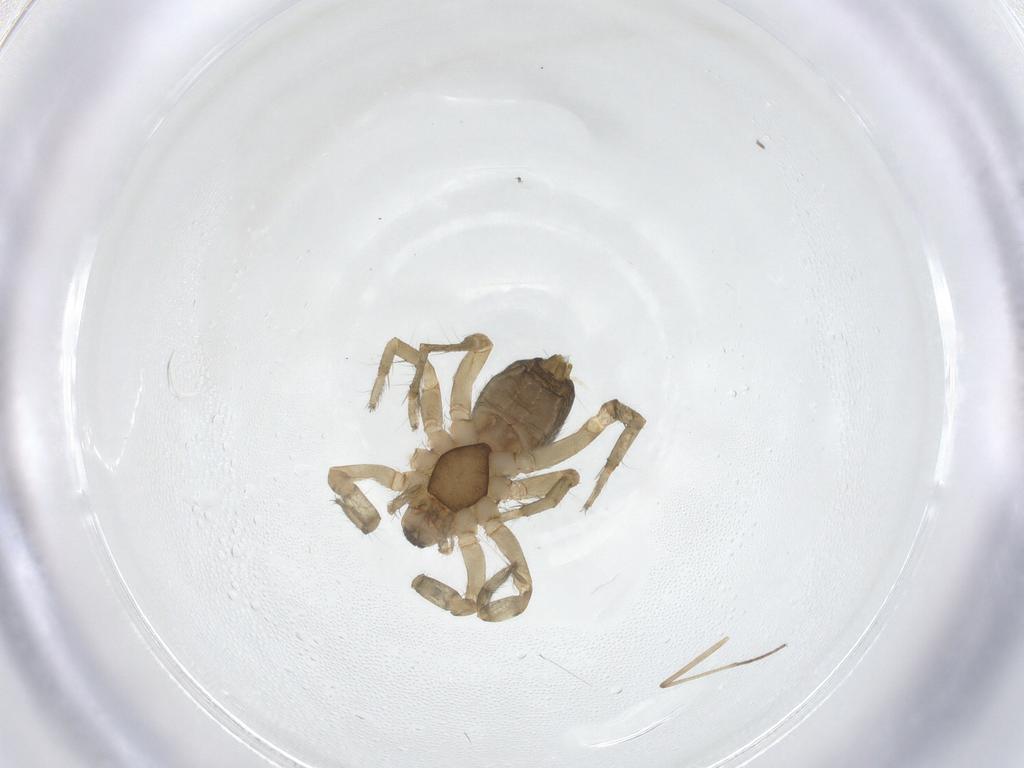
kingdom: Animalia
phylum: Arthropoda
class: Arachnida
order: Araneae
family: Anyphaenidae
